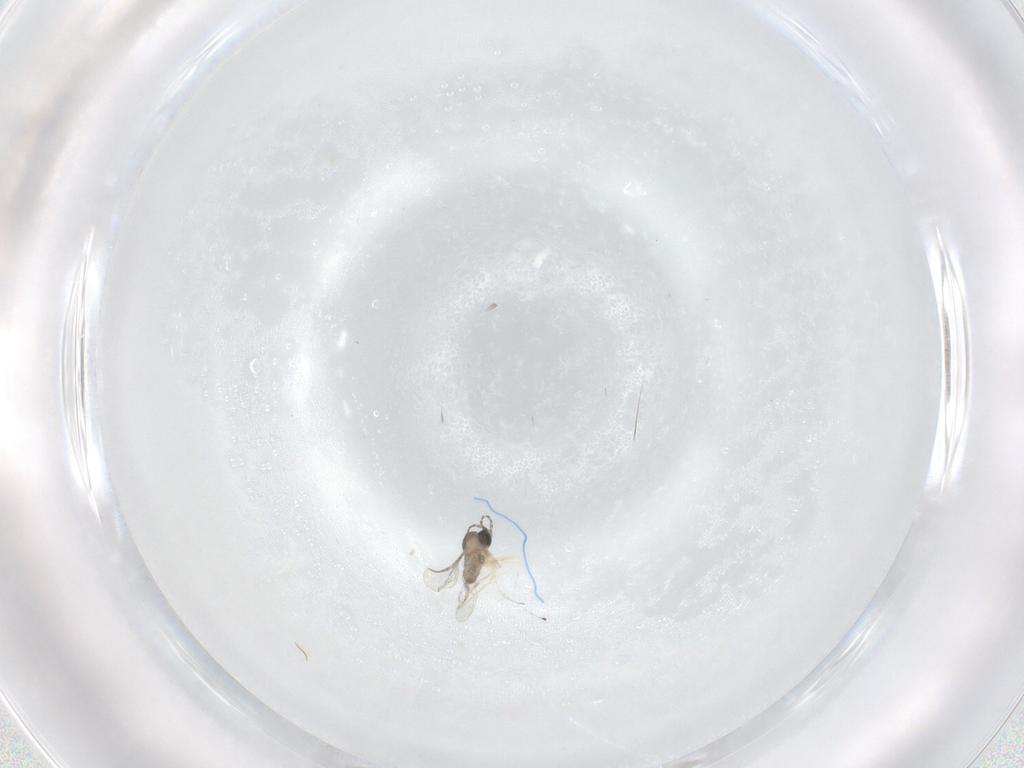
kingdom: Animalia
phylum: Arthropoda
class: Insecta
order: Diptera
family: Cecidomyiidae
